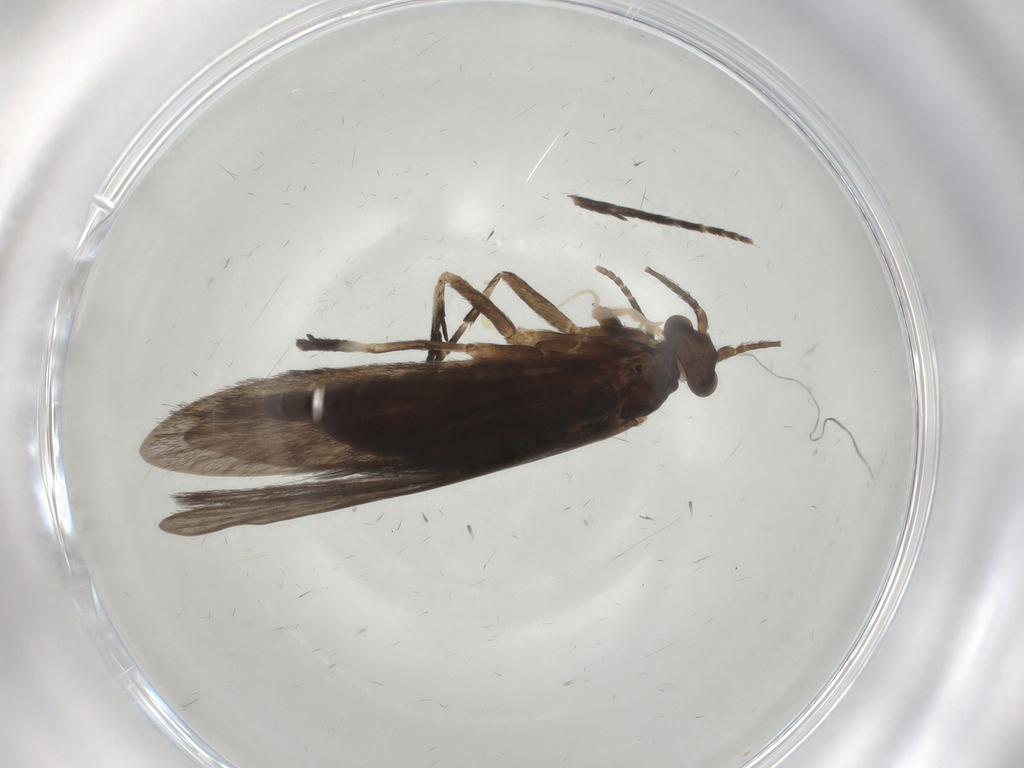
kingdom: Animalia
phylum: Arthropoda
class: Insecta
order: Trichoptera
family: Xiphocentronidae
